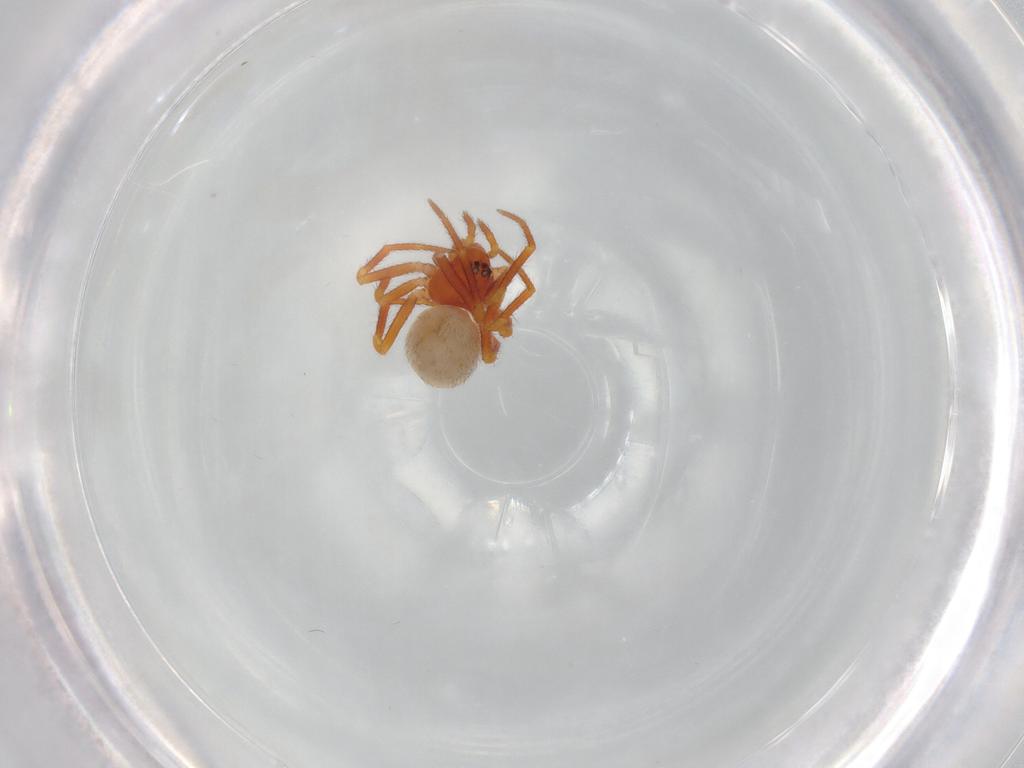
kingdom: Animalia
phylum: Arthropoda
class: Arachnida
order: Araneae
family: Theridiidae
